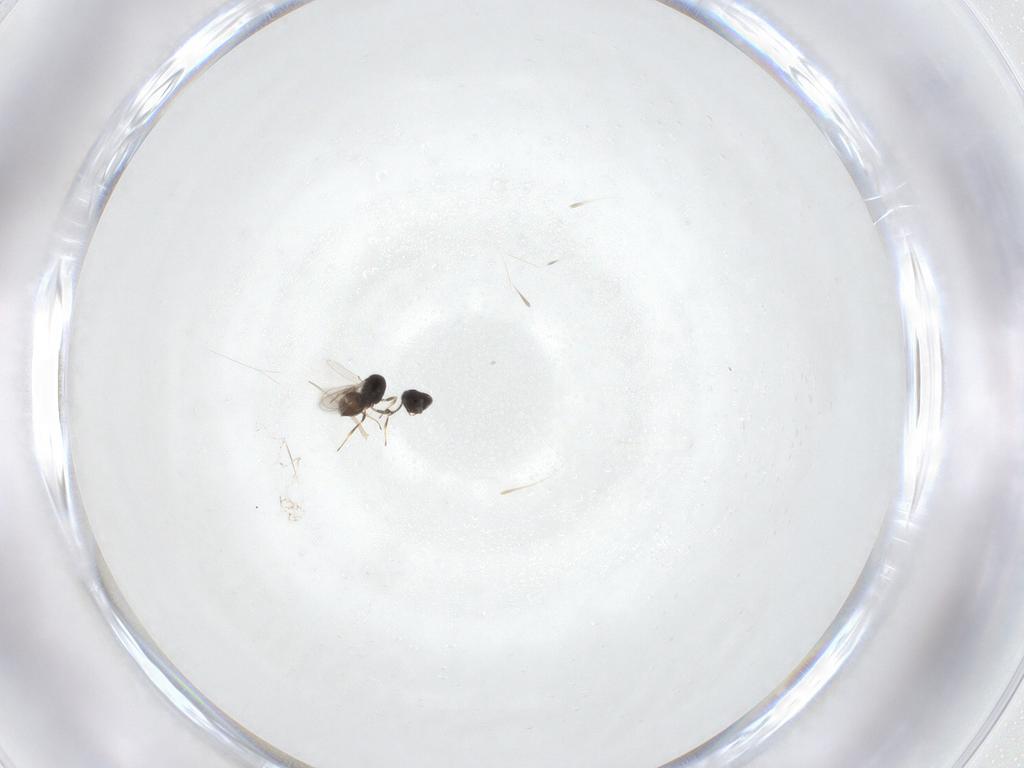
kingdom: Animalia
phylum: Arthropoda
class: Insecta
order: Hymenoptera
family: Scelionidae
